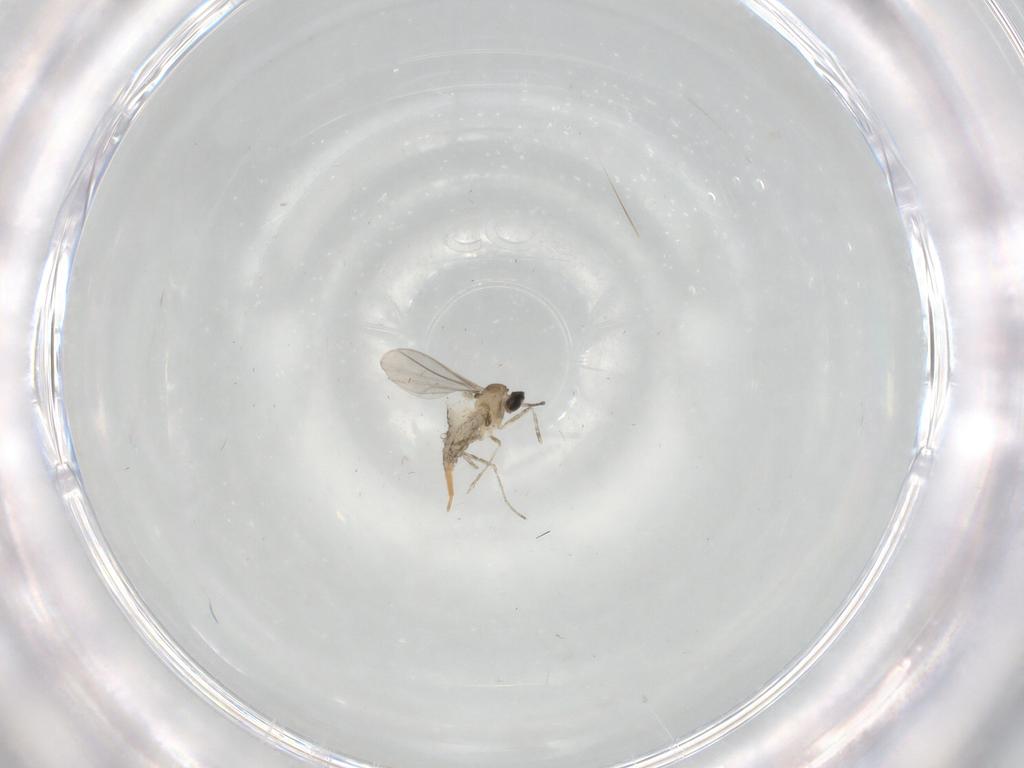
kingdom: Animalia
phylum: Arthropoda
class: Insecta
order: Diptera
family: Cecidomyiidae
